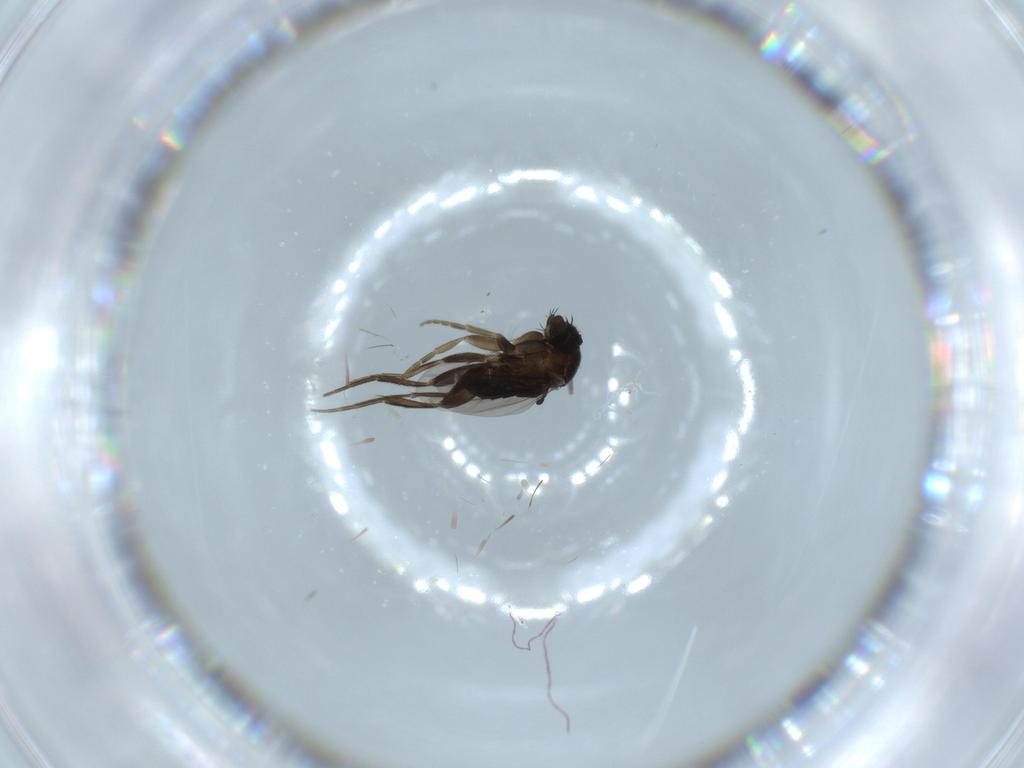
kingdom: Animalia
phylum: Arthropoda
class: Insecta
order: Diptera
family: Phoridae
